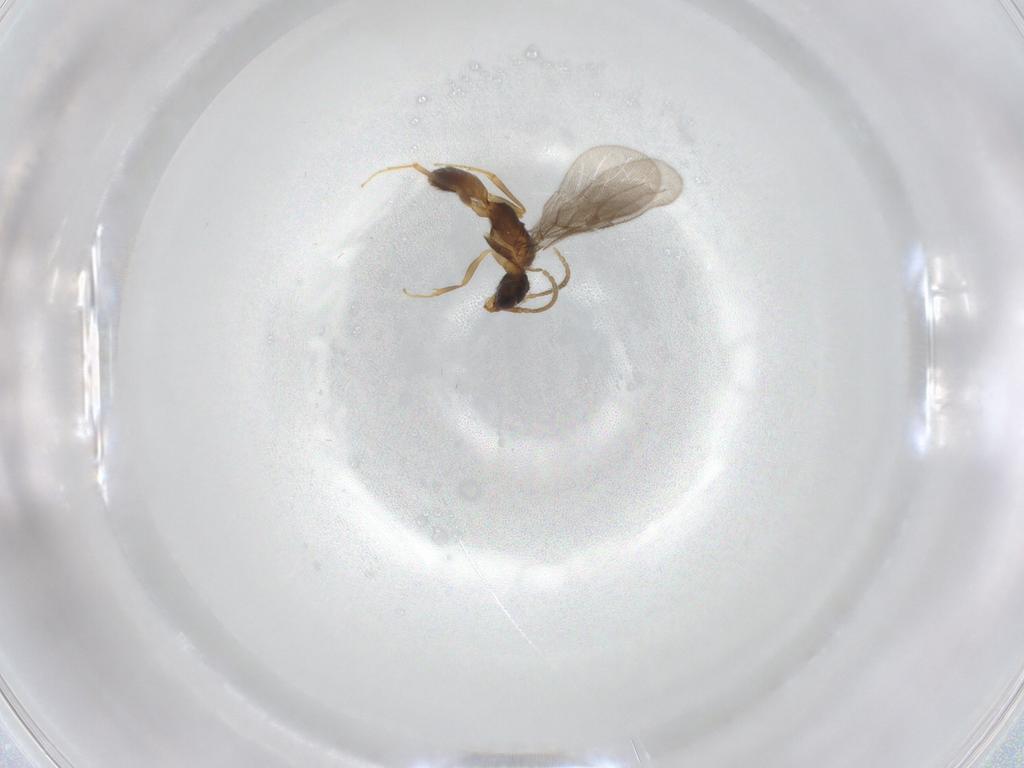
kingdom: Animalia
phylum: Arthropoda
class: Insecta
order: Hymenoptera
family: Bethylidae
